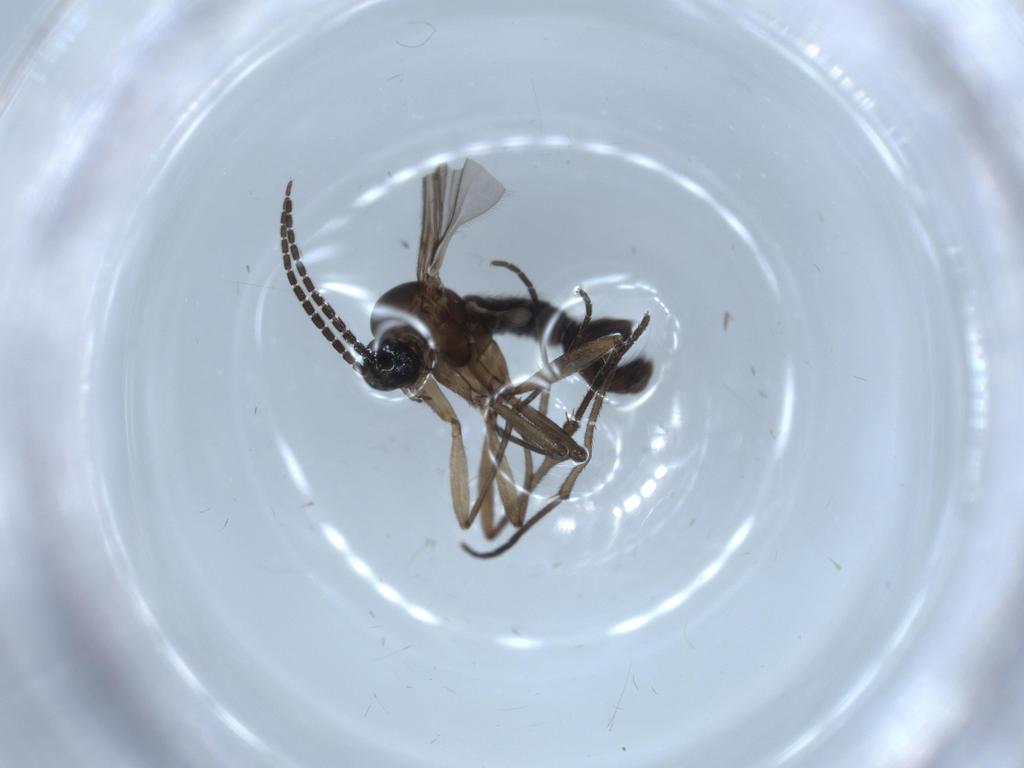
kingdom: Animalia
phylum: Arthropoda
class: Insecta
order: Diptera
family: Sciaridae
